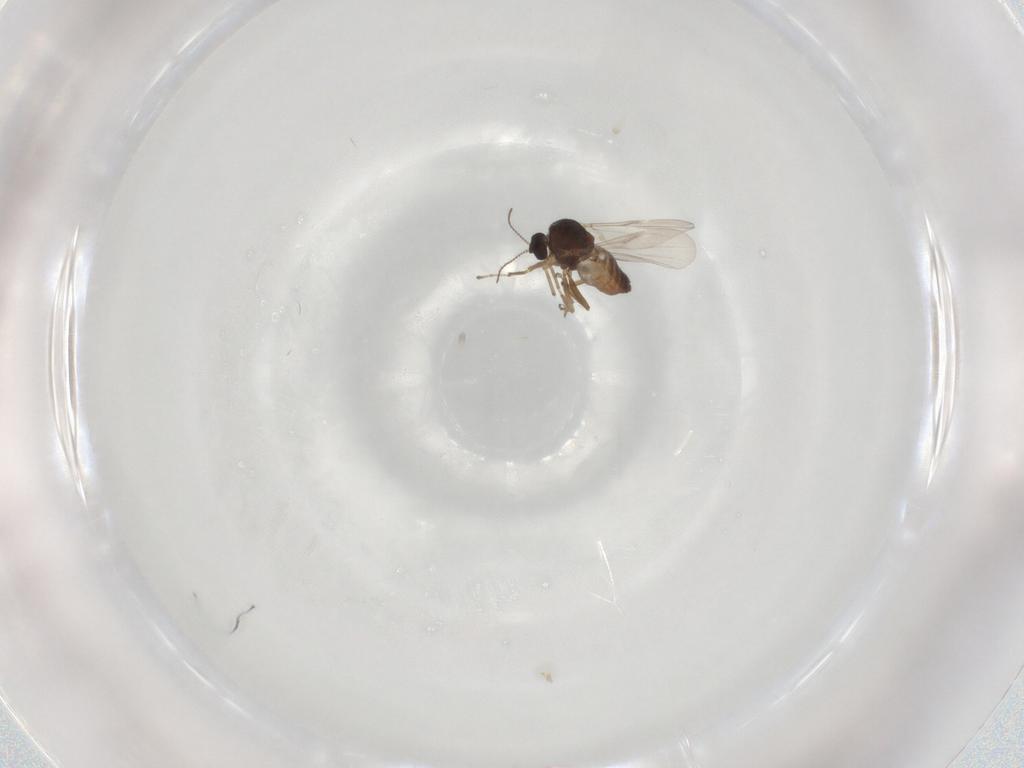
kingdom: Animalia
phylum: Arthropoda
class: Insecta
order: Diptera
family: Ceratopogonidae
